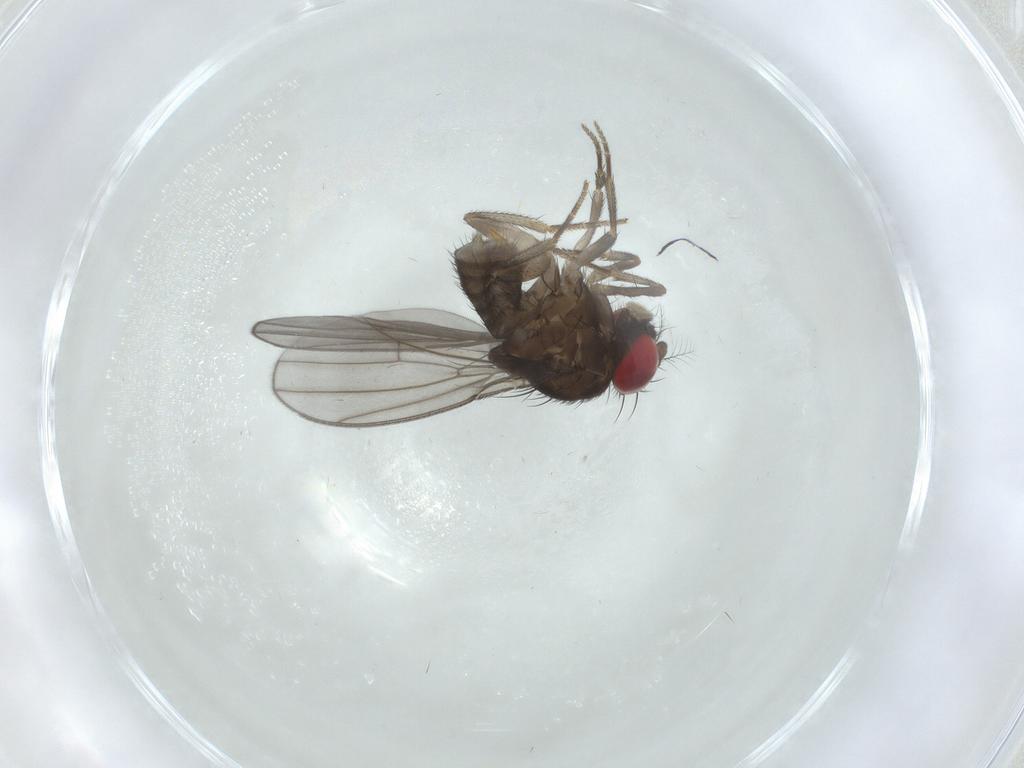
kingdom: Animalia
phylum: Arthropoda
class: Insecta
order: Diptera
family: Drosophilidae
